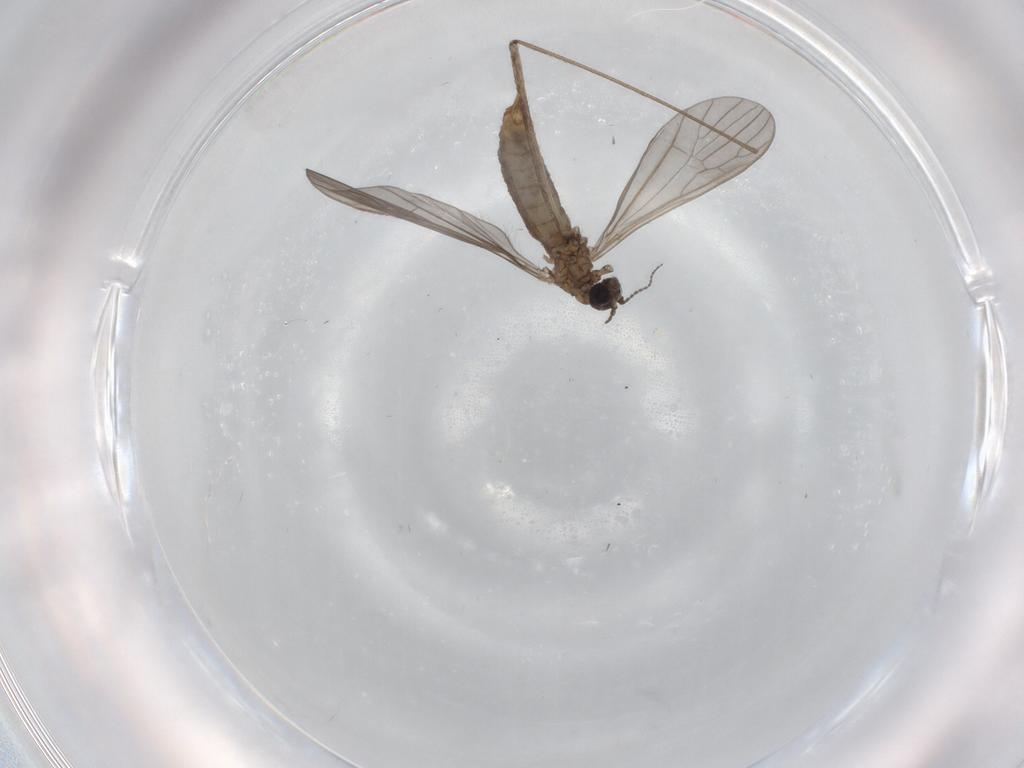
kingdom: Animalia
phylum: Arthropoda
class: Insecta
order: Diptera
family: Limoniidae
